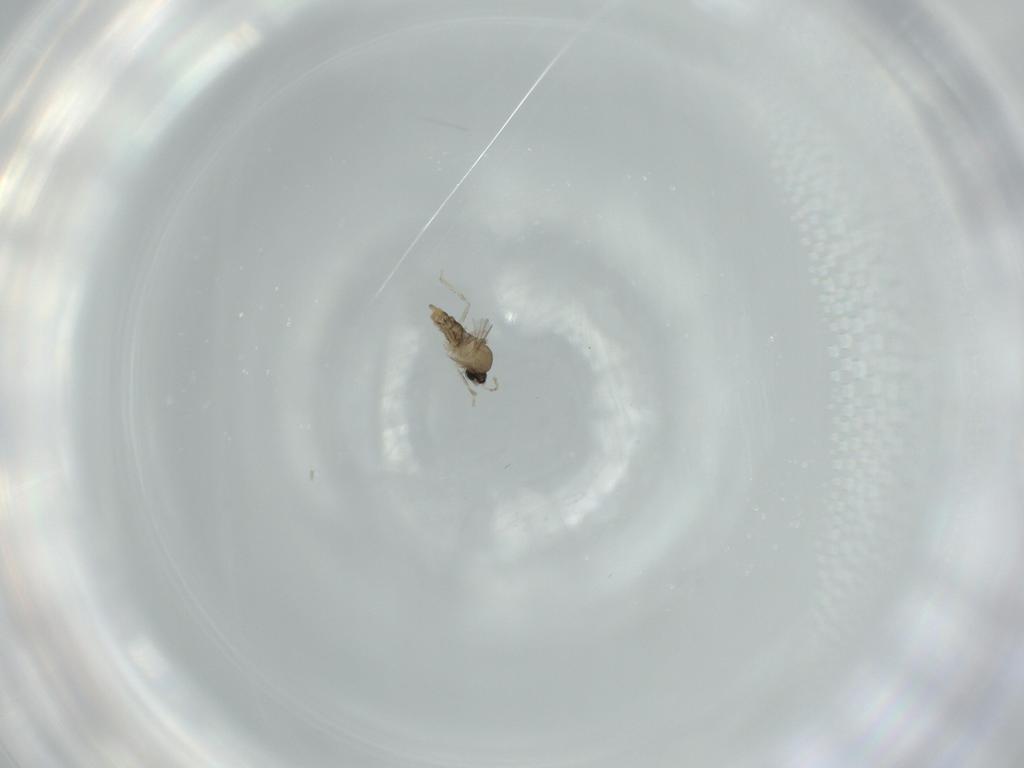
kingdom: Animalia
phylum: Arthropoda
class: Insecta
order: Diptera
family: Cecidomyiidae
